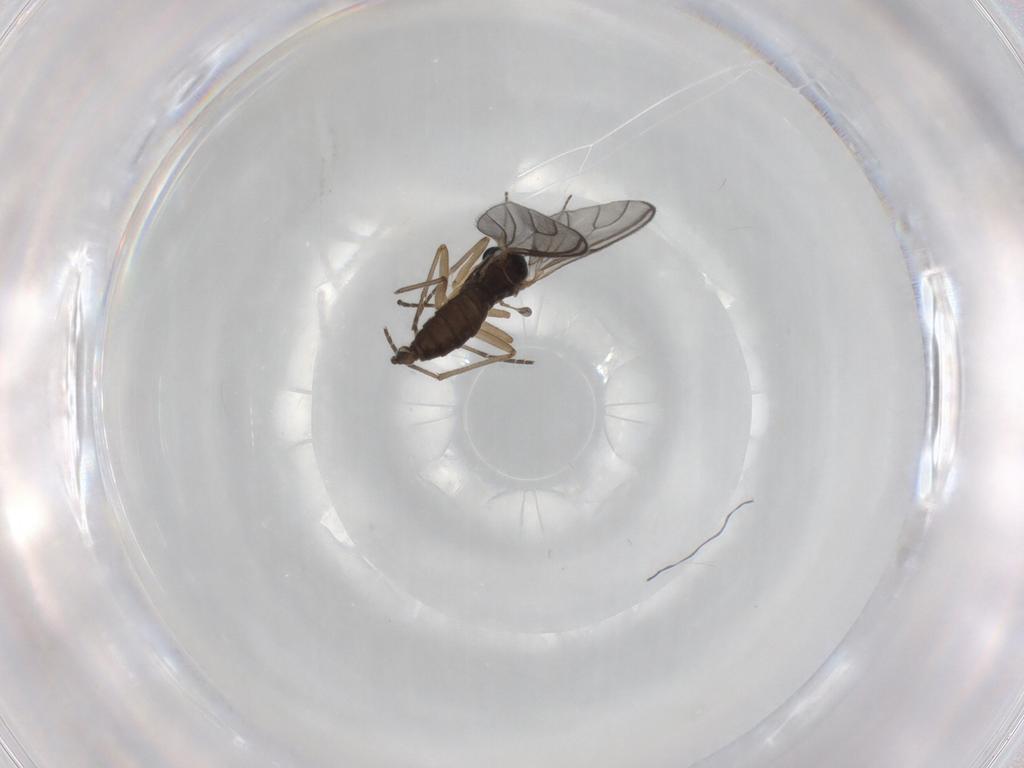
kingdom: Animalia
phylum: Arthropoda
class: Insecta
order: Diptera
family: Sciaridae
